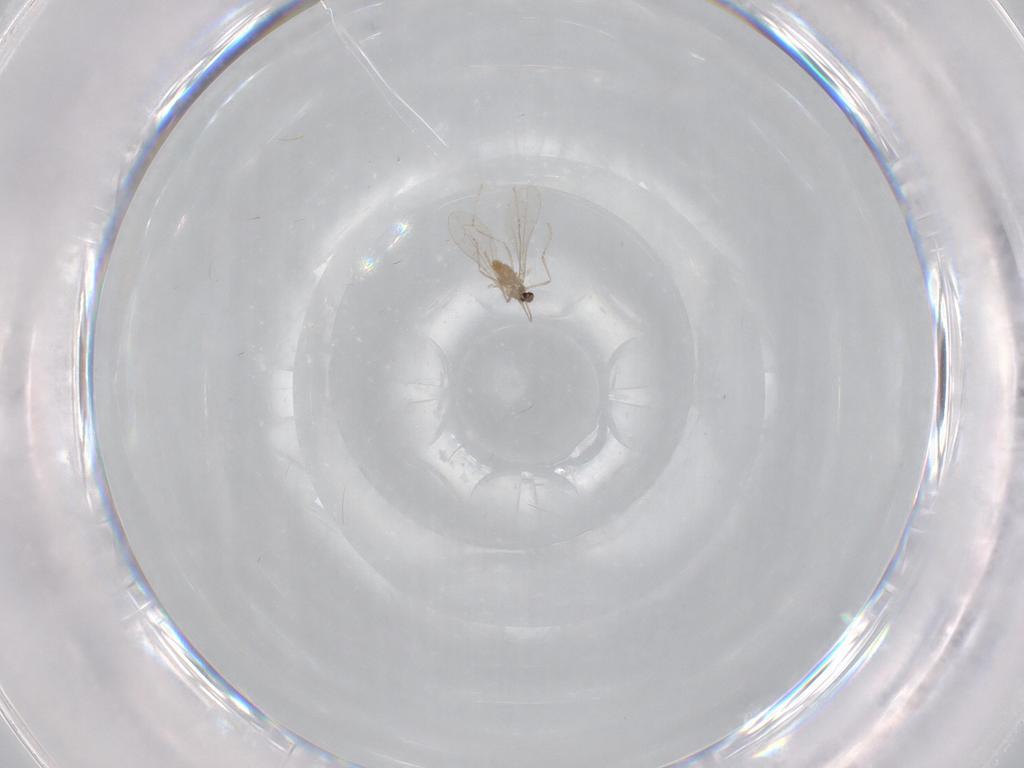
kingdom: Animalia
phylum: Arthropoda
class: Insecta
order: Diptera
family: Cecidomyiidae
